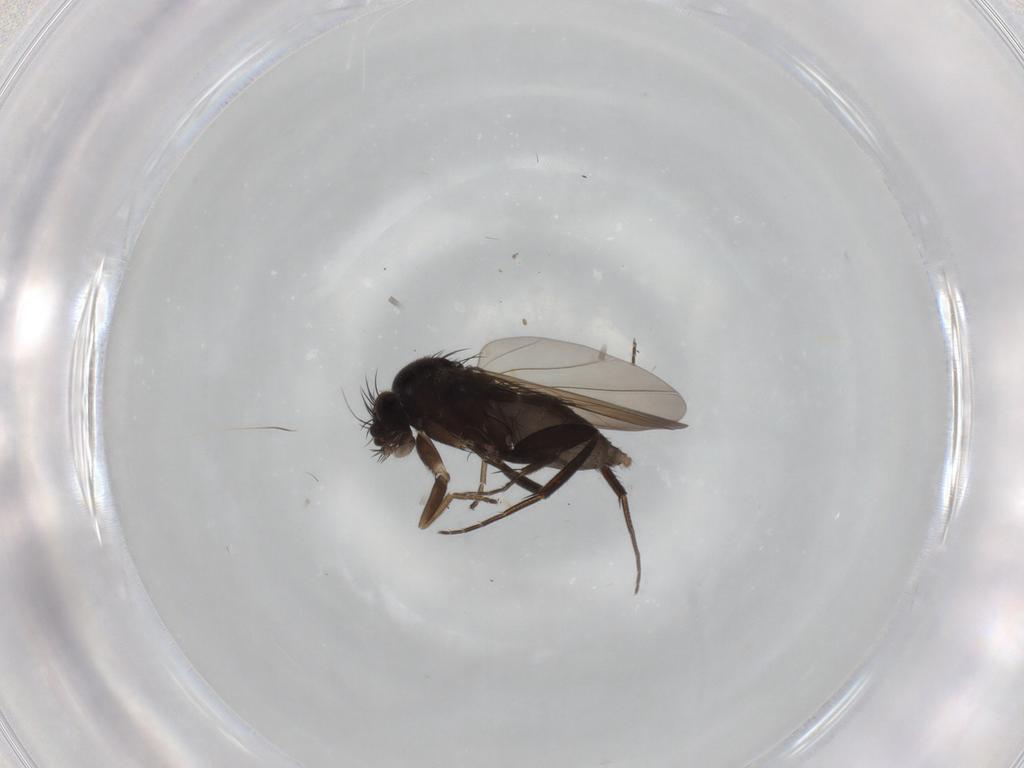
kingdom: Animalia
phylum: Arthropoda
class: Insecta
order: Diptera
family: Phoridae
